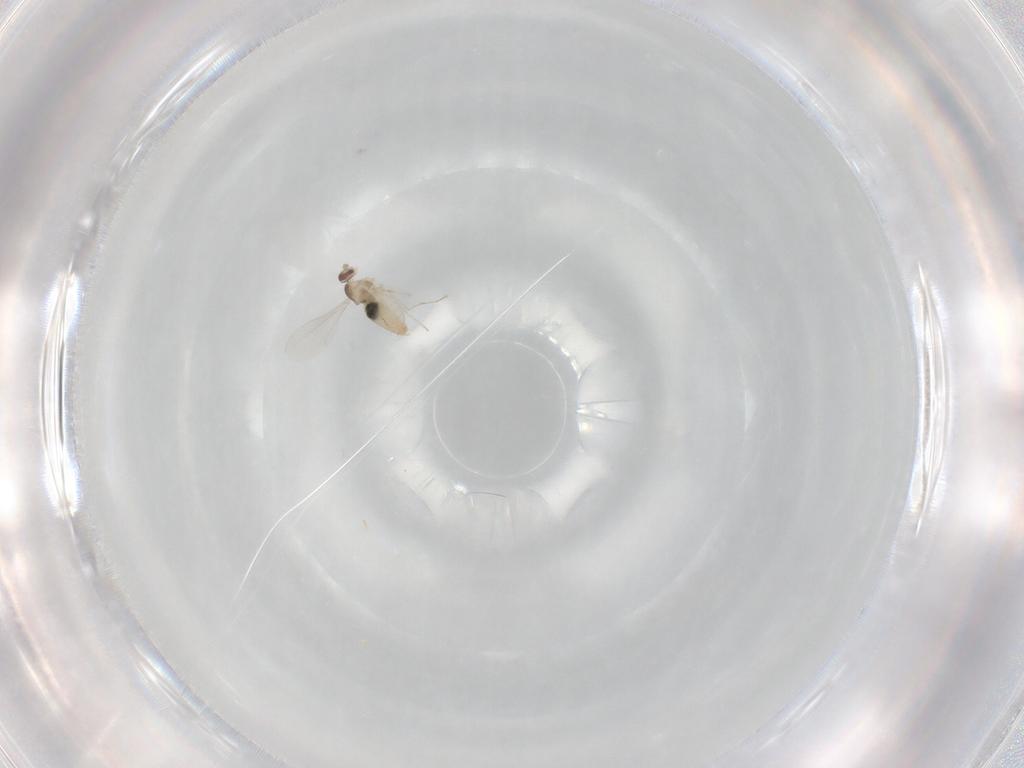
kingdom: Animalia
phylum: Arthropoda
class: Insecta
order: Diptera
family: Cecidomyiidae
